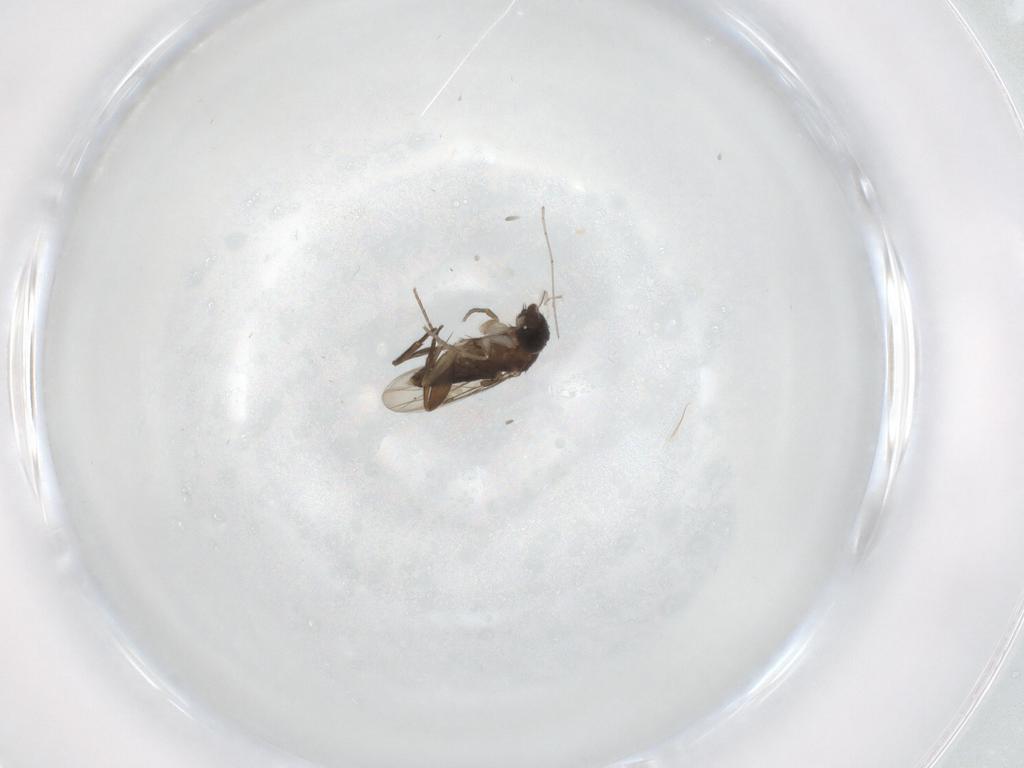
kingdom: Animalia
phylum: Arthropoda
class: Insecta
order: Diptera
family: Phoridae
